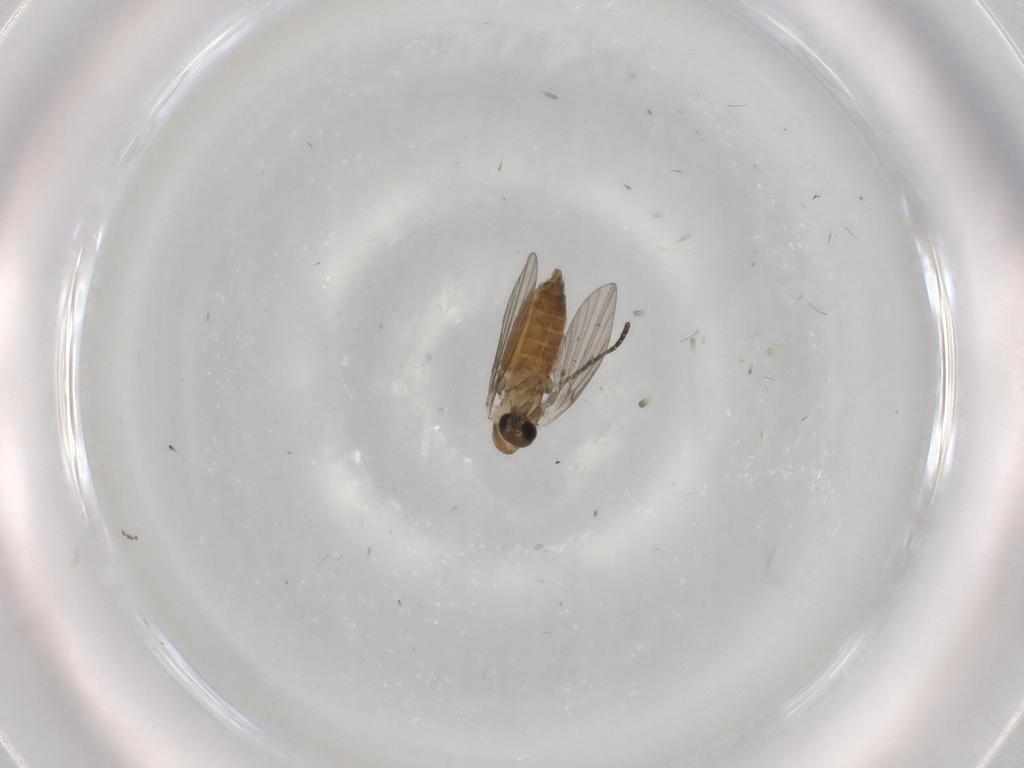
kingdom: Animalia
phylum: Arthropoda
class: Insecta
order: Diptera
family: Psychodidae
